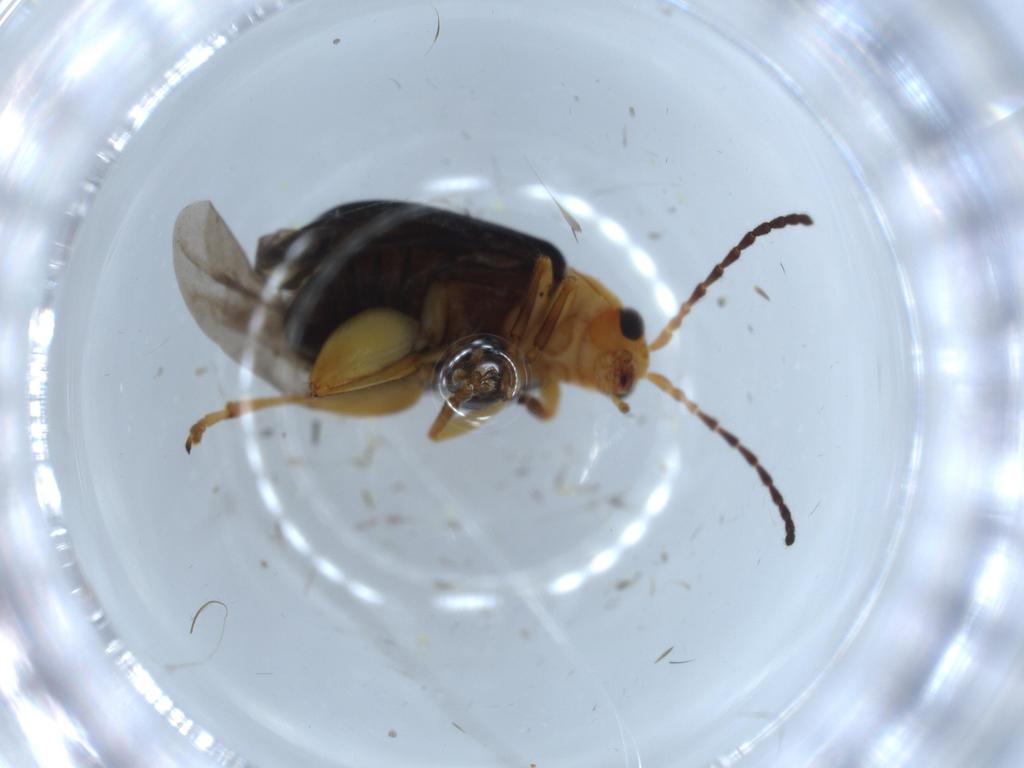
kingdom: Animalia
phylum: Arthropoda
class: Insecta
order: Coleoptera
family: Chrysomelidae
